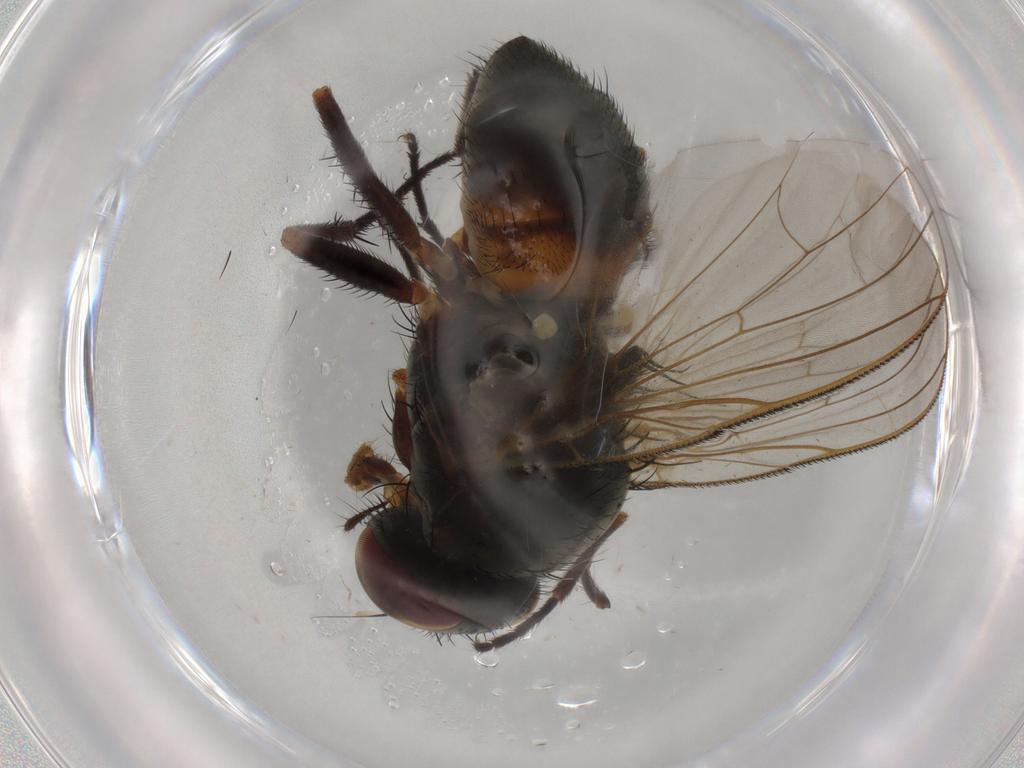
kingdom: Animalia
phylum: Arthropoda
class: Insecta
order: Diptera
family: Fannia
